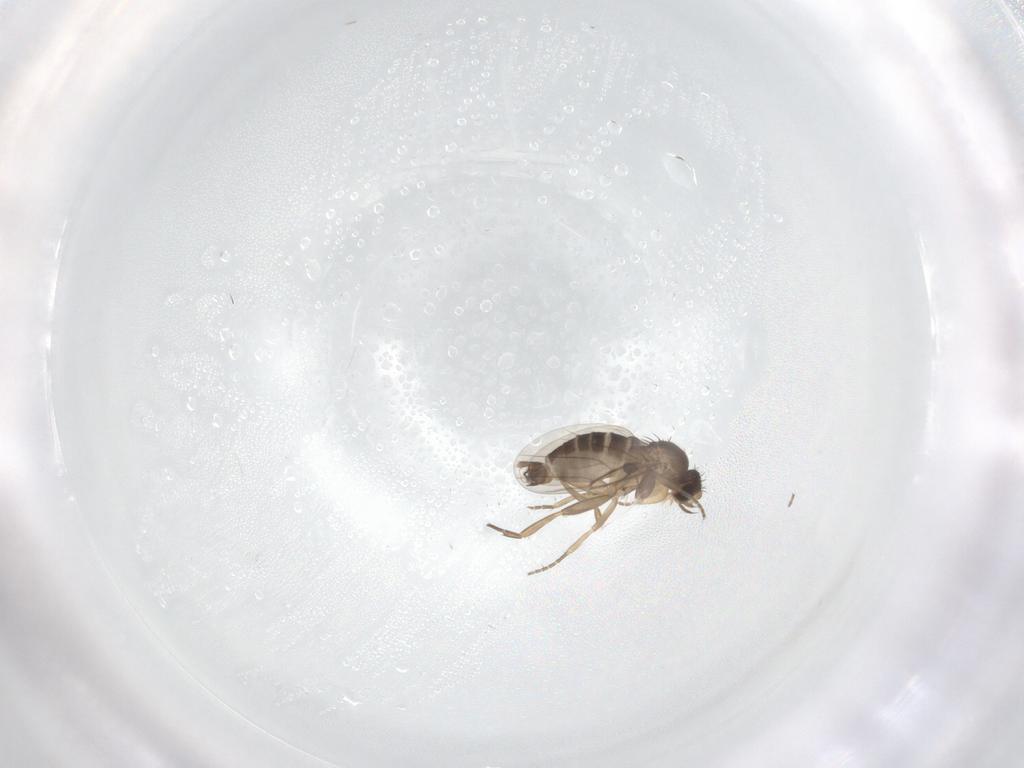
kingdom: Animalia
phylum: Arthropoda
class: Insecta
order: Diptera
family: Phoridae
